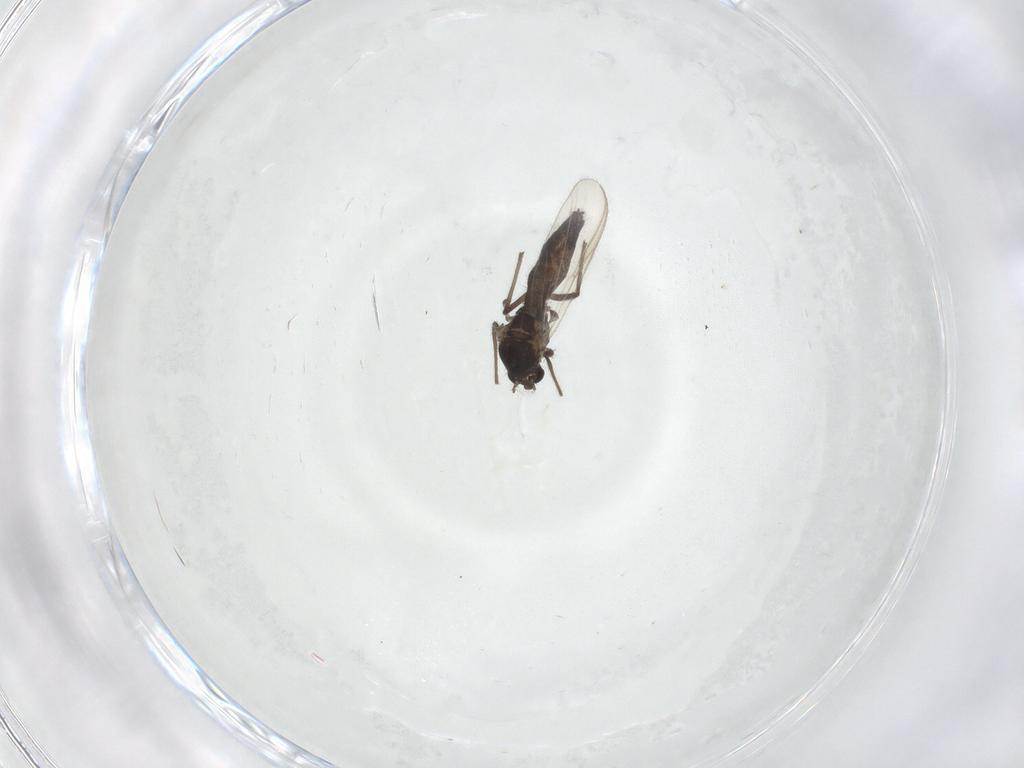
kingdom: Animalia
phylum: Arthropoda
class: Insecta
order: Diptera
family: Chironomidae
